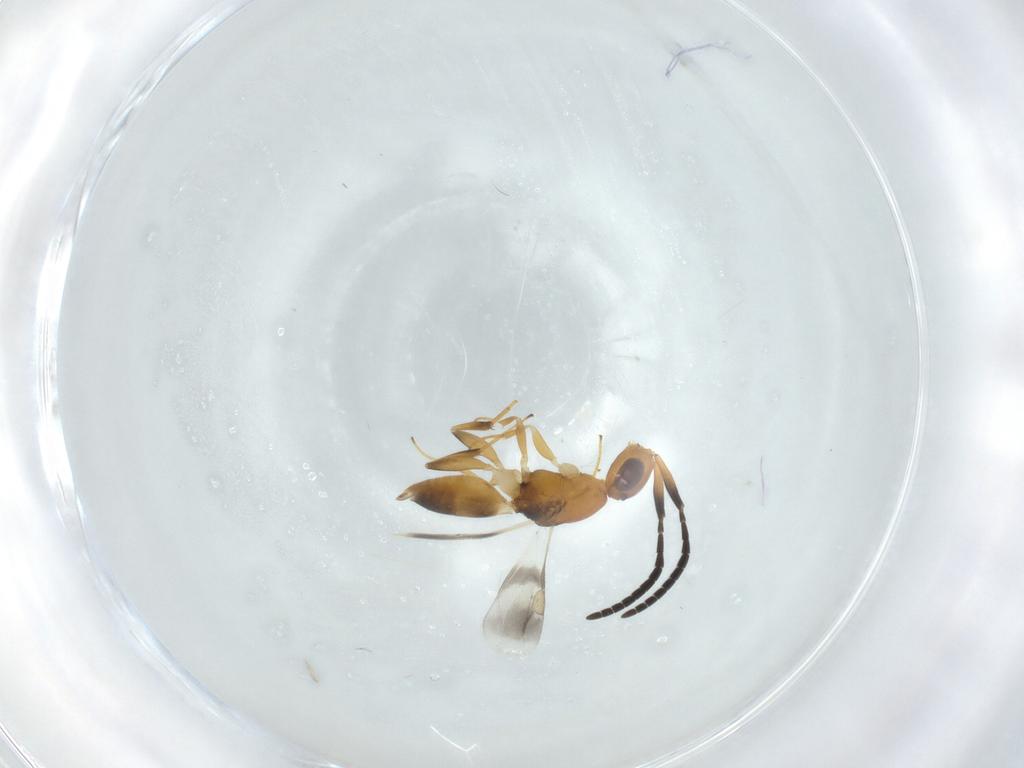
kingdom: Animalia
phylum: Arthropoda
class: Insecta
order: Hymenoptera
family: Megaspilidae
